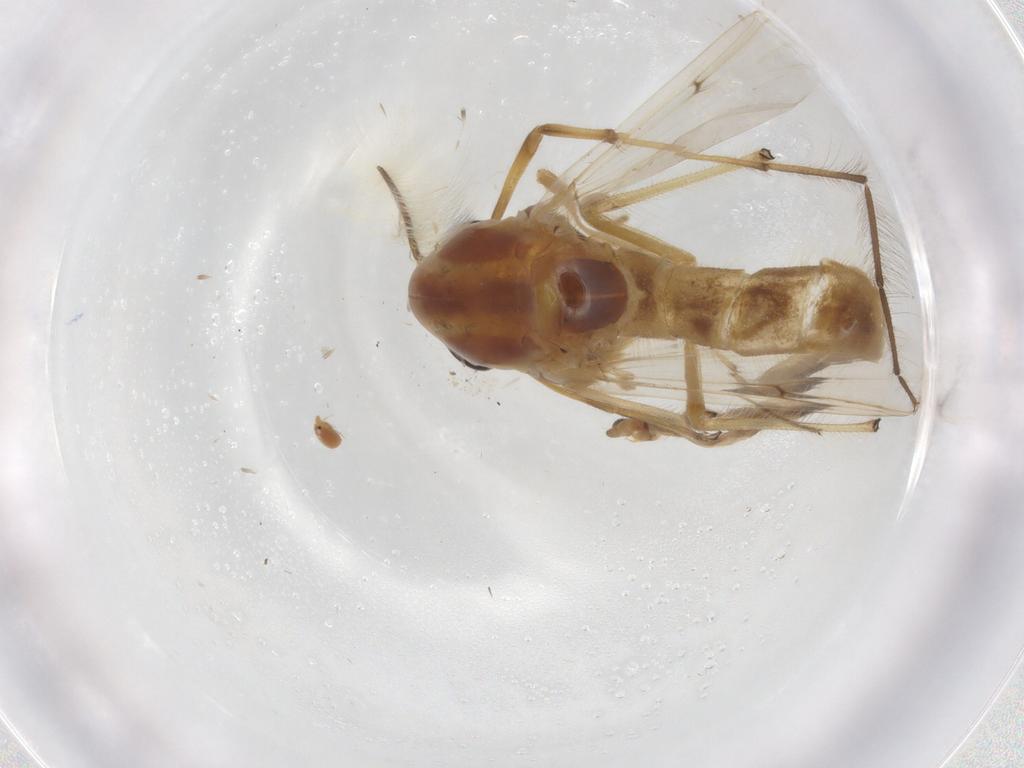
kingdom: Animalia
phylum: Arthropoda
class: Insecta
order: Diptera
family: Chironomidae
